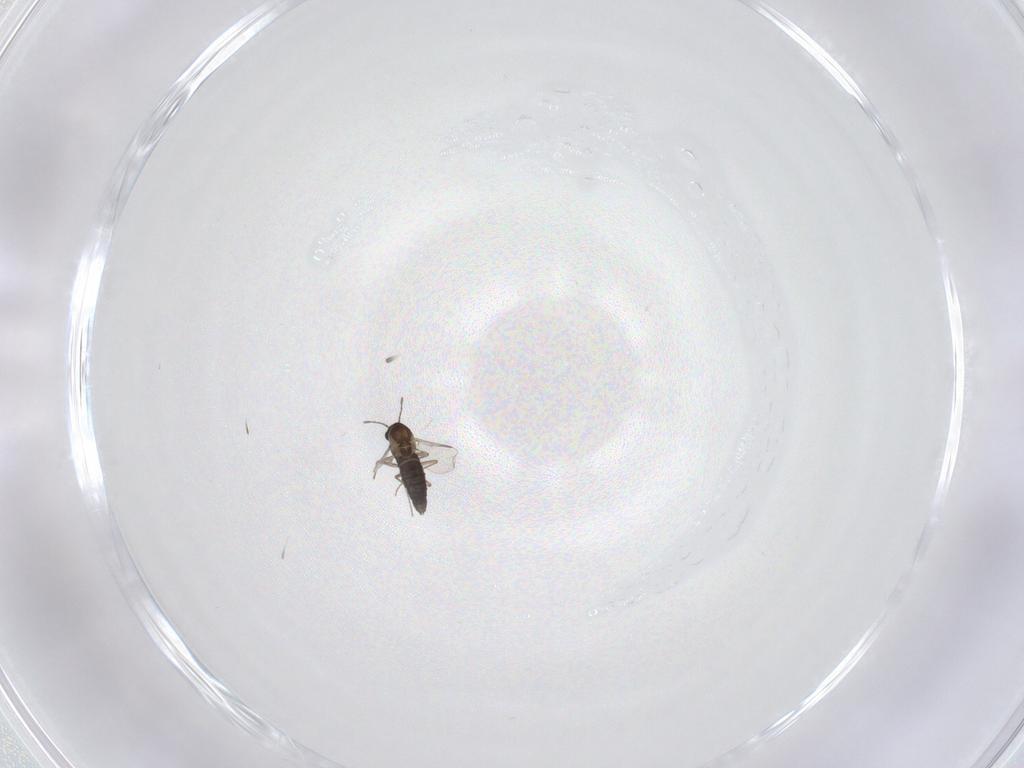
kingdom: Animalia
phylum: Arthropoda
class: Insecta
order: Diptera
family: Chironomidae
